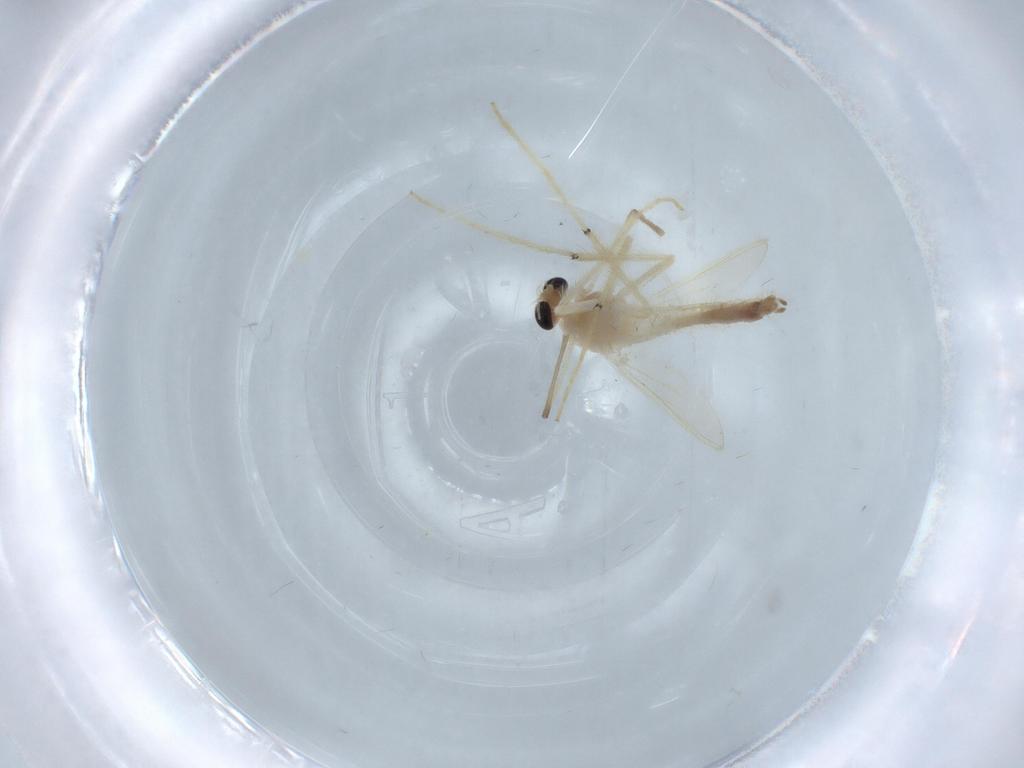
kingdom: Animalia
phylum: Arthropoda
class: Insecta
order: Diptera
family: Chironomidae
